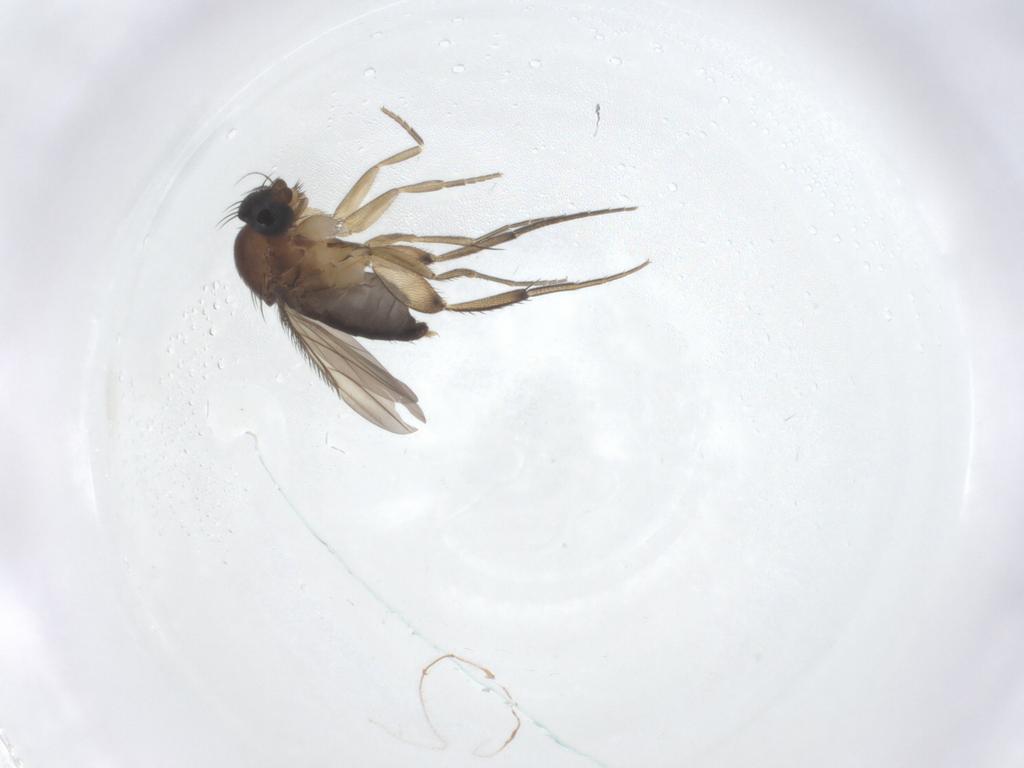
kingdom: Animalia
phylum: Arthropoda
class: Insecta
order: Diptera
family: Phoridae
